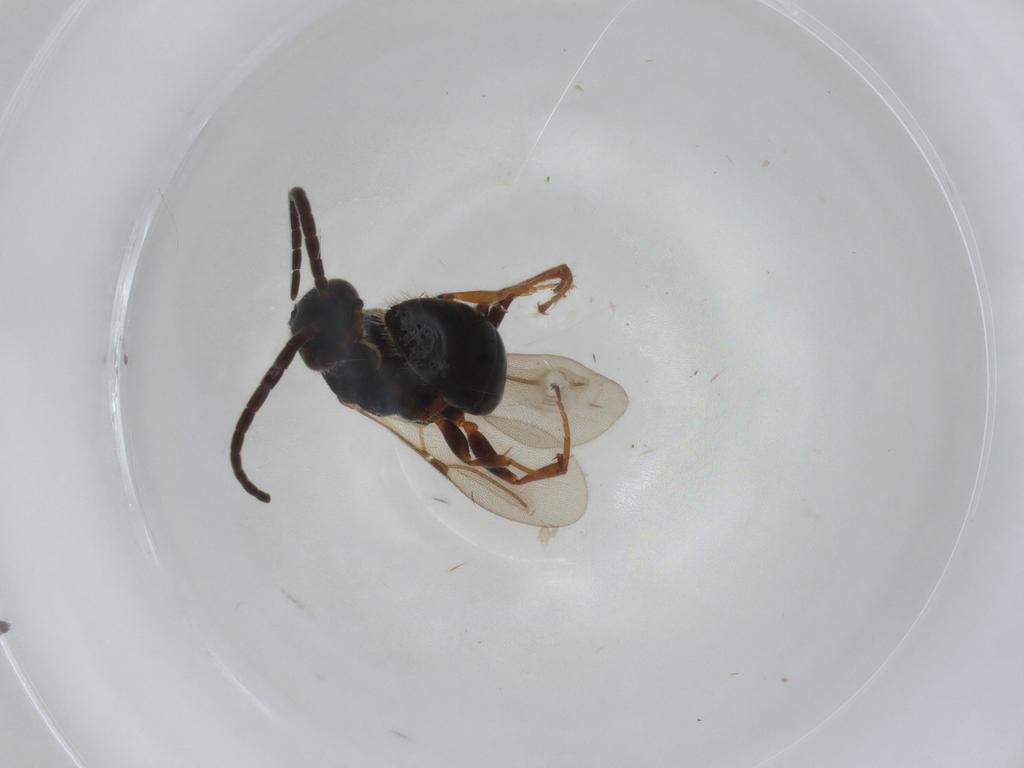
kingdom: Animalia
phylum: Arthropoda
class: Insecta
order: Hymenoptera
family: Bethylidae
